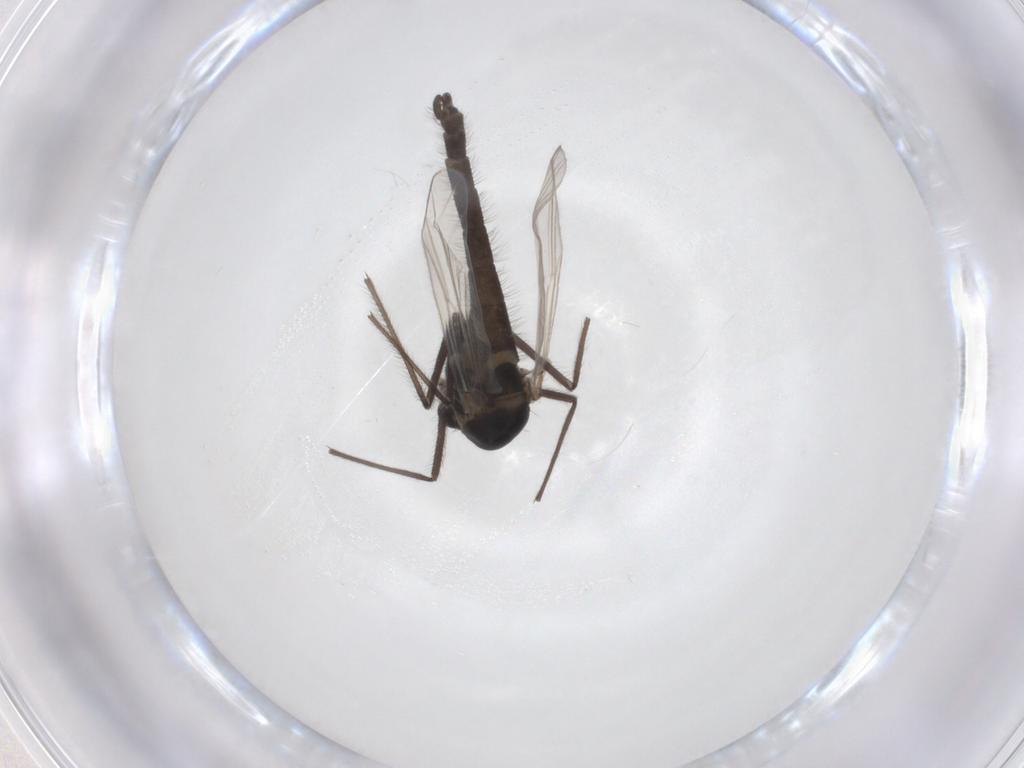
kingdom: Animalia
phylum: Arthropoda
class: Insecta
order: Diptera
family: Chironomidae
